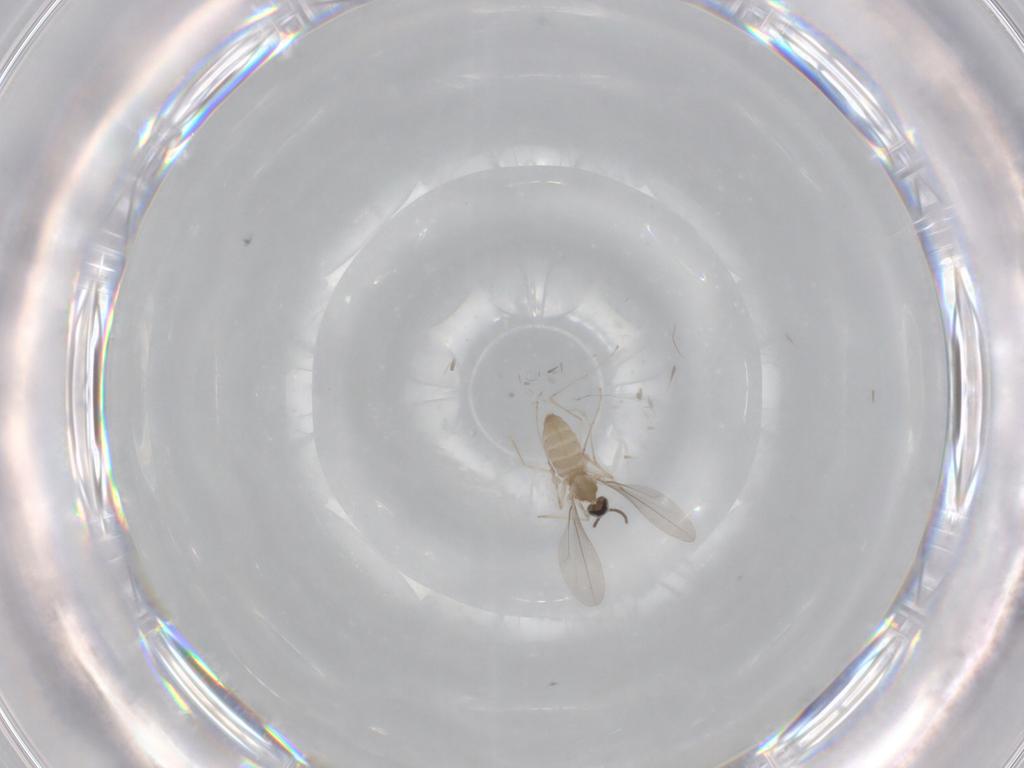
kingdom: Animalia
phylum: Arthropoda
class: Insecta
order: Diptera
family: Cecidomyiidae
